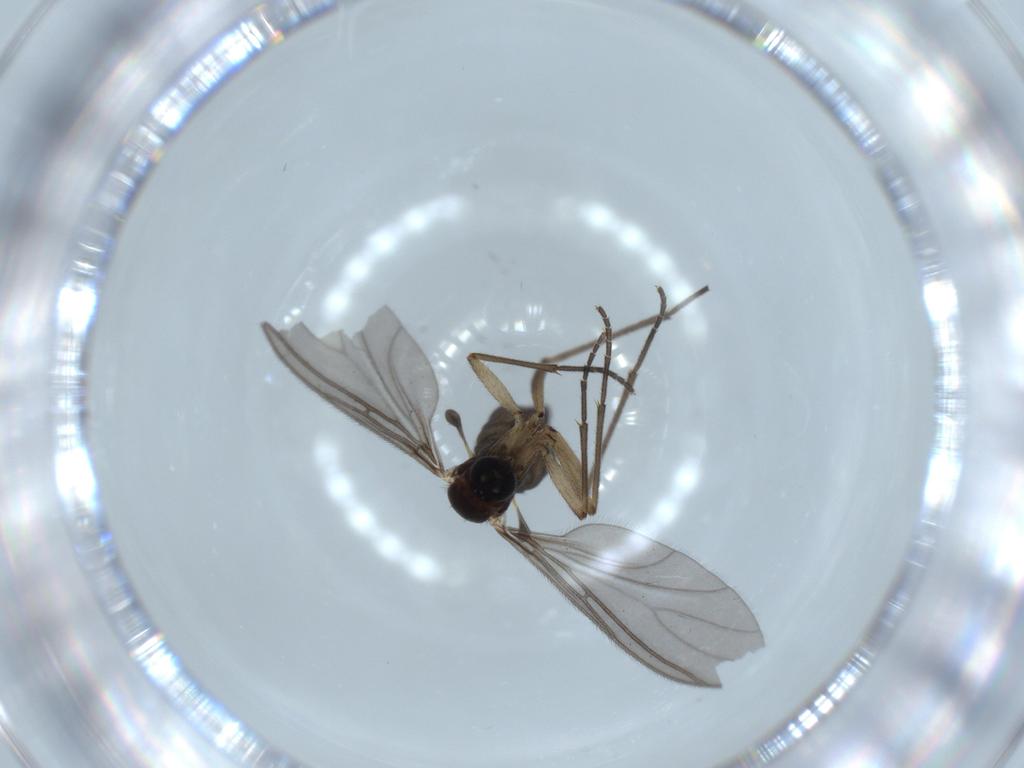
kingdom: Animalia
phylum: Arthropoda
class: Insecta
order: Diptera
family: Sciaridae
